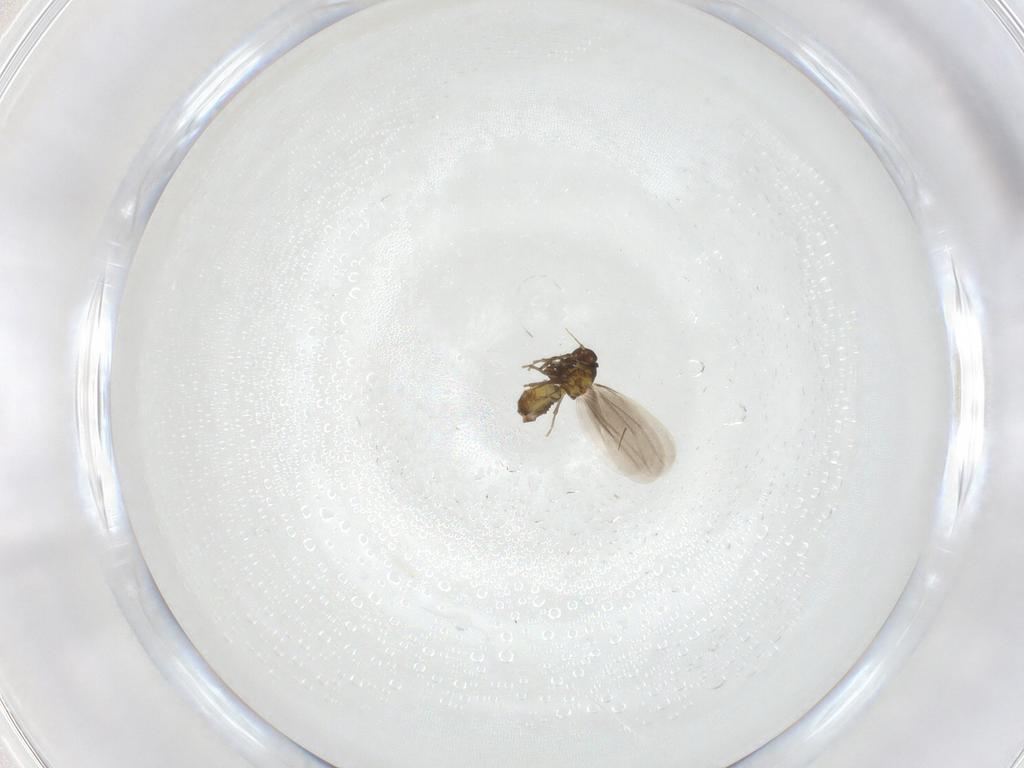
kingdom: Animalia
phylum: Arthropoda
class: Insecta
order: Hemiptera
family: Aleyrodidae
